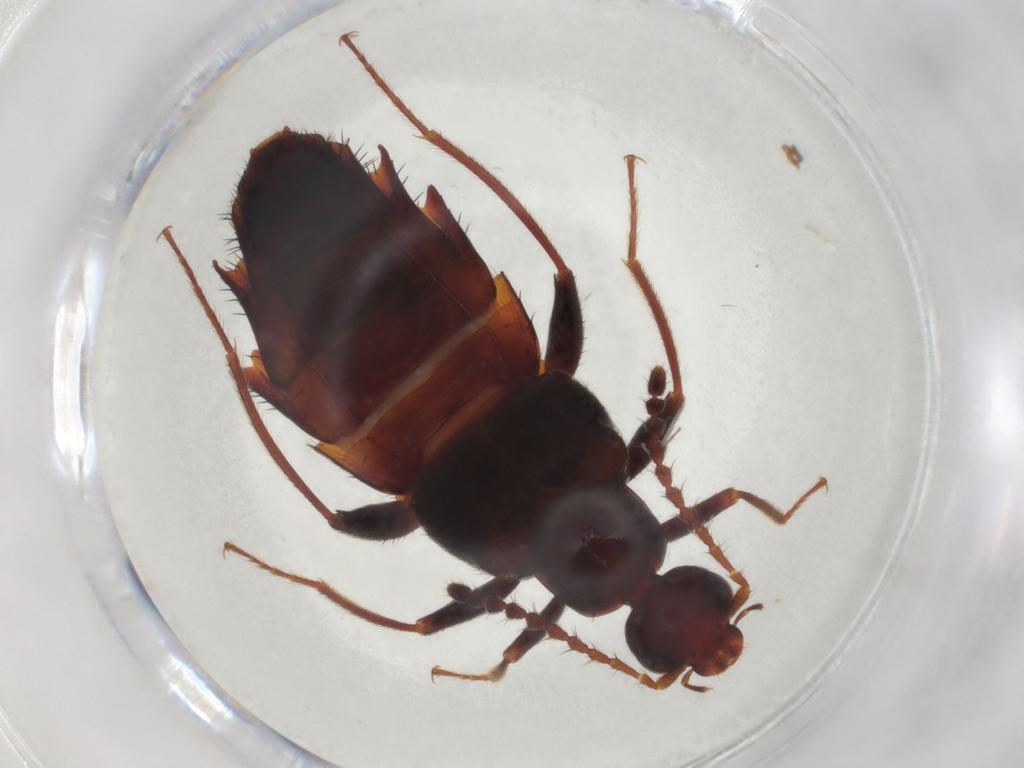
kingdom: Animalia
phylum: Arthropoda
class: Insecta
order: Coleoptera
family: Staphylinidae
